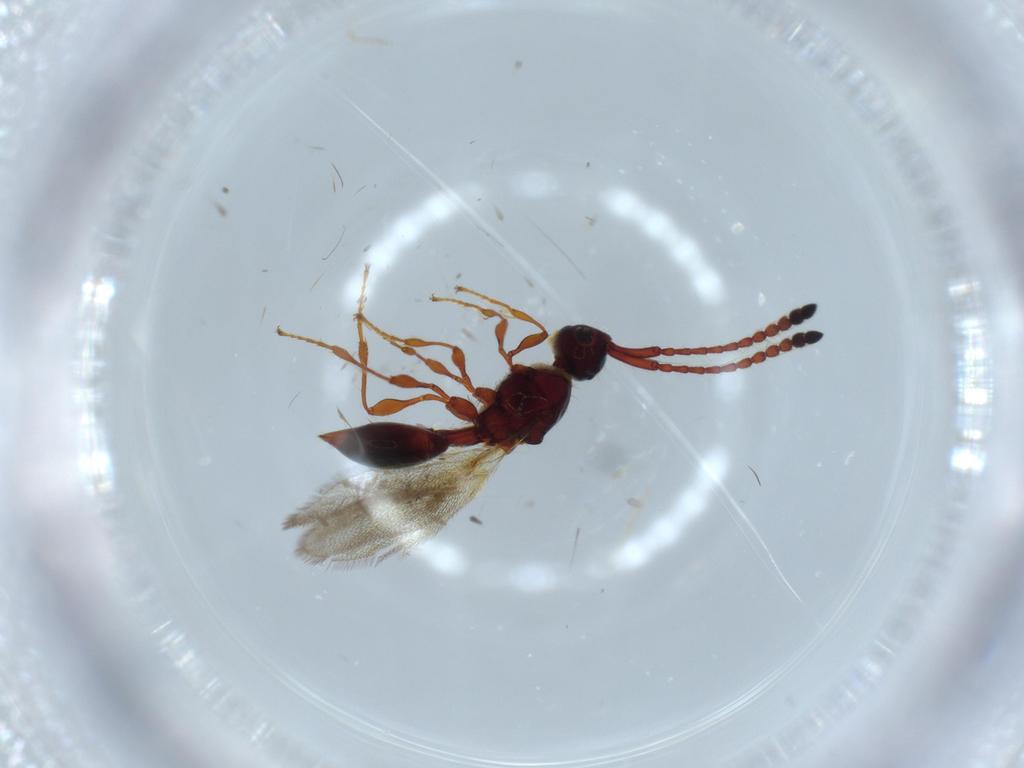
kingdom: Animalia
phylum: Arthropoda
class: Insecta
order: Hymenoptera
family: Diapriidae
